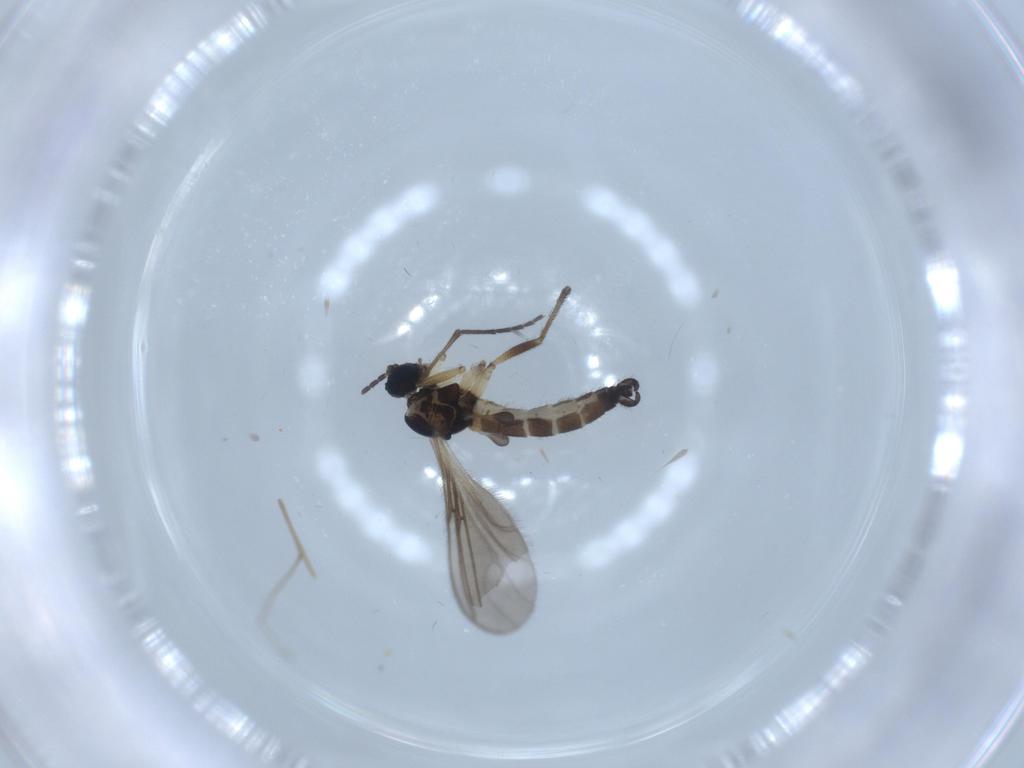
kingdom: Animalia
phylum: Arthropoda
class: Insecta
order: Diptera
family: Sciaridae
